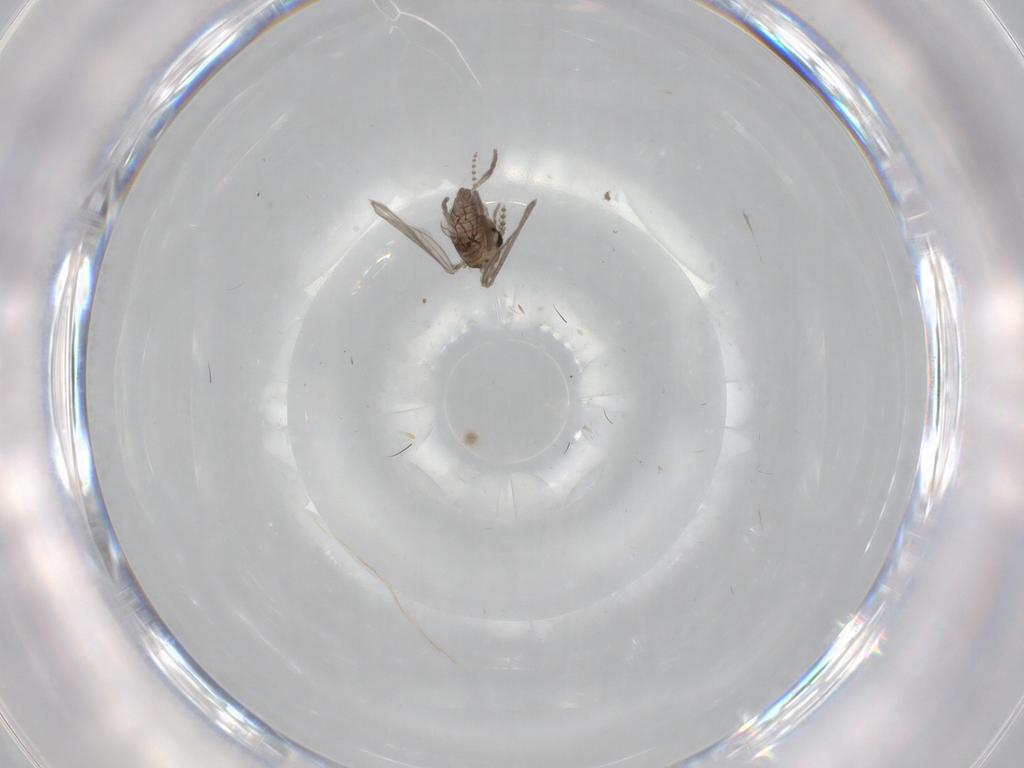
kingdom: Animalia
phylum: Arthropoda
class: Insecta
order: Diptera
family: Psychodidae
